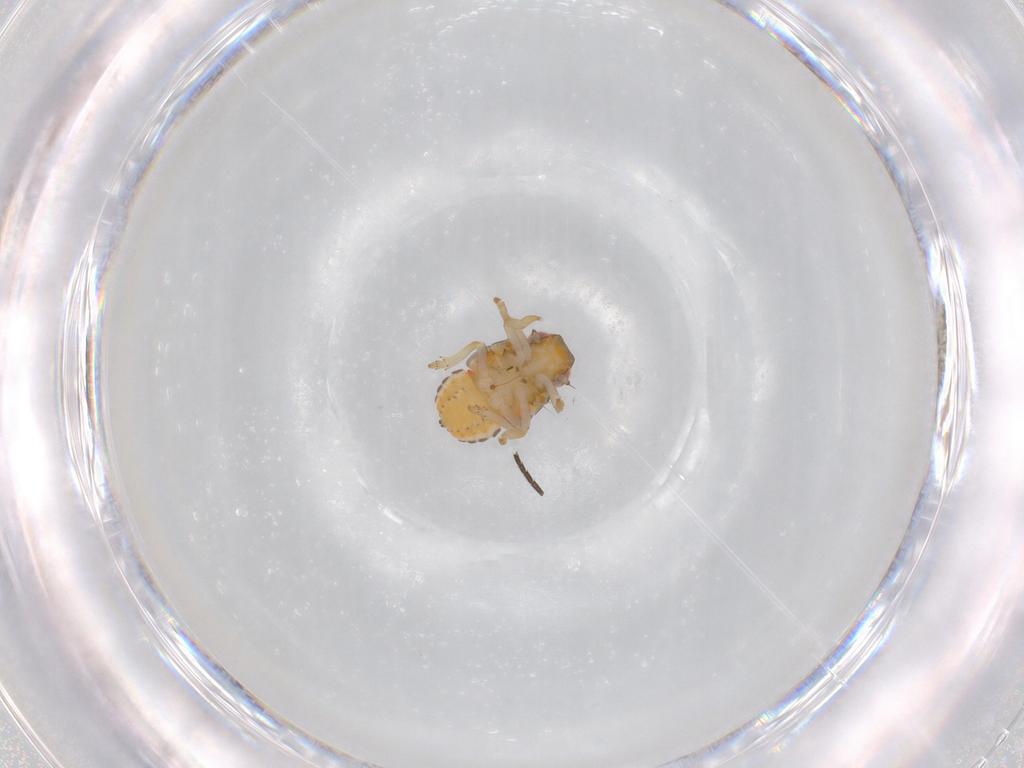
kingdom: Animalia
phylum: Arthropoda
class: Insecta
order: Hemiptera
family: Issidae
